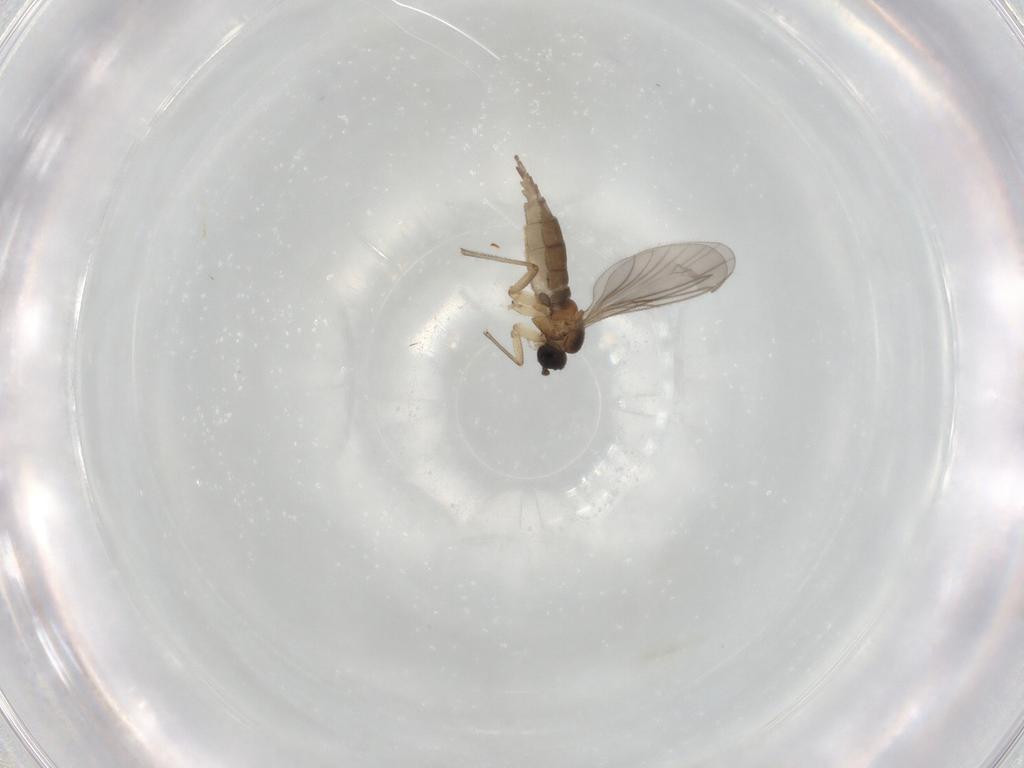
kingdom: Animalia
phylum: Arthropoda
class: Insecta
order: Diptera
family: Sciaridae
